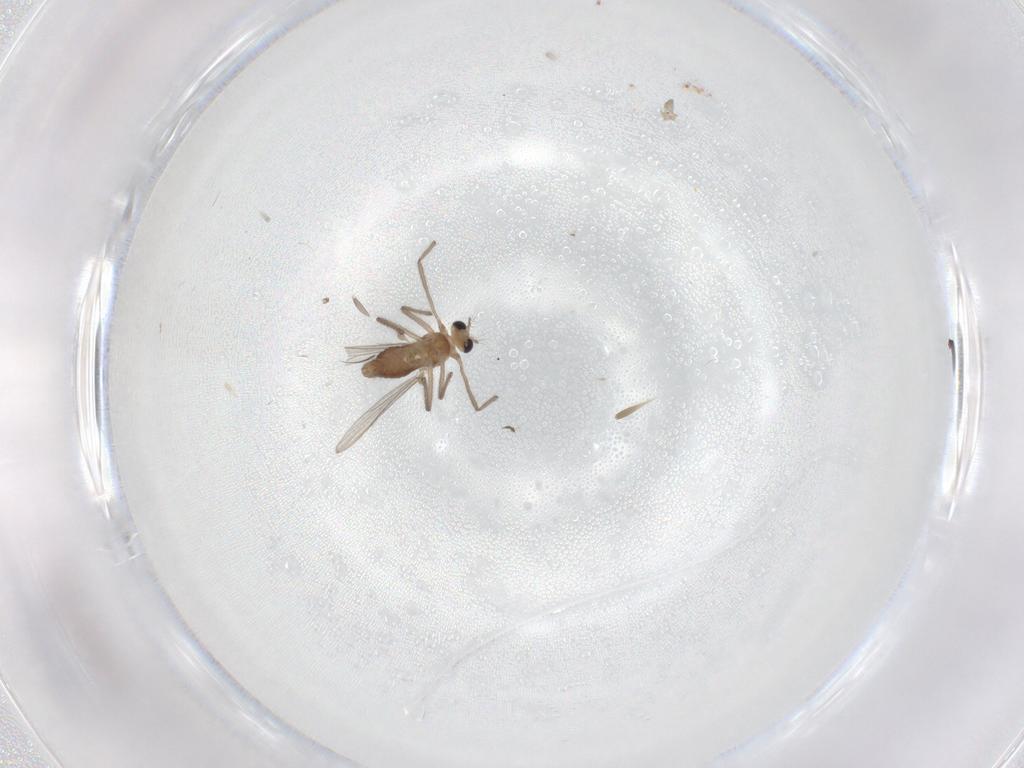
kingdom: Animalia
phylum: Arthropoda
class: Insecta
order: Diptera
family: Chironomidae
